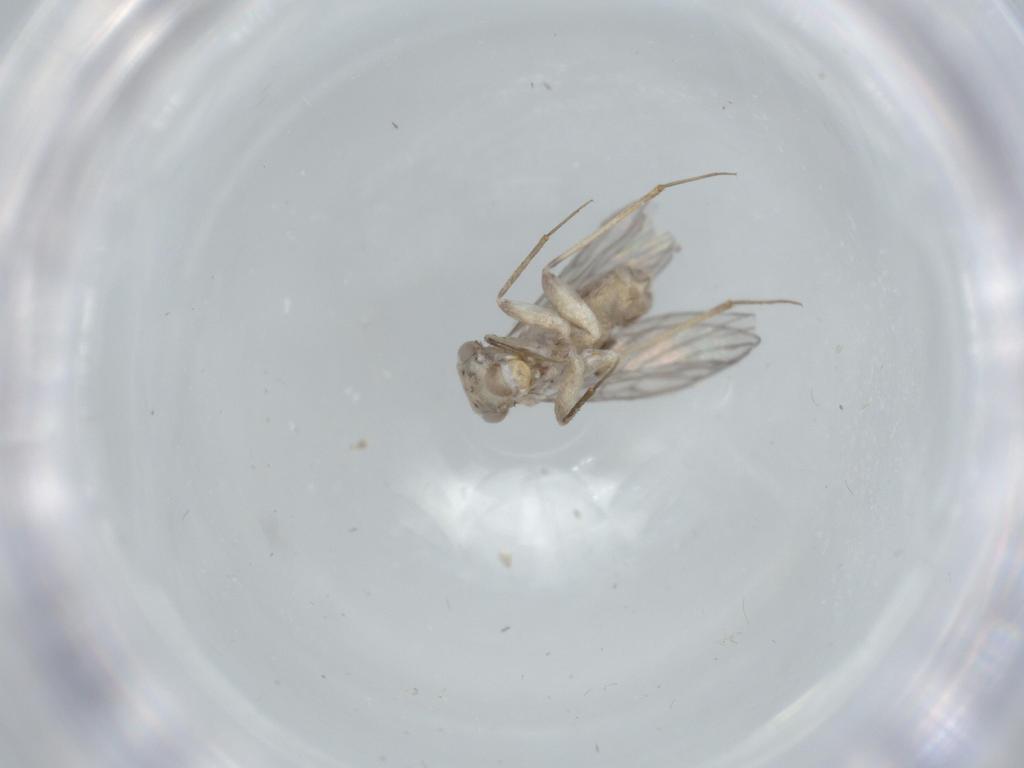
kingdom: Animalia
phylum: Arthropoda
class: Insecta
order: Psocodea
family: Lepidopsocidae
